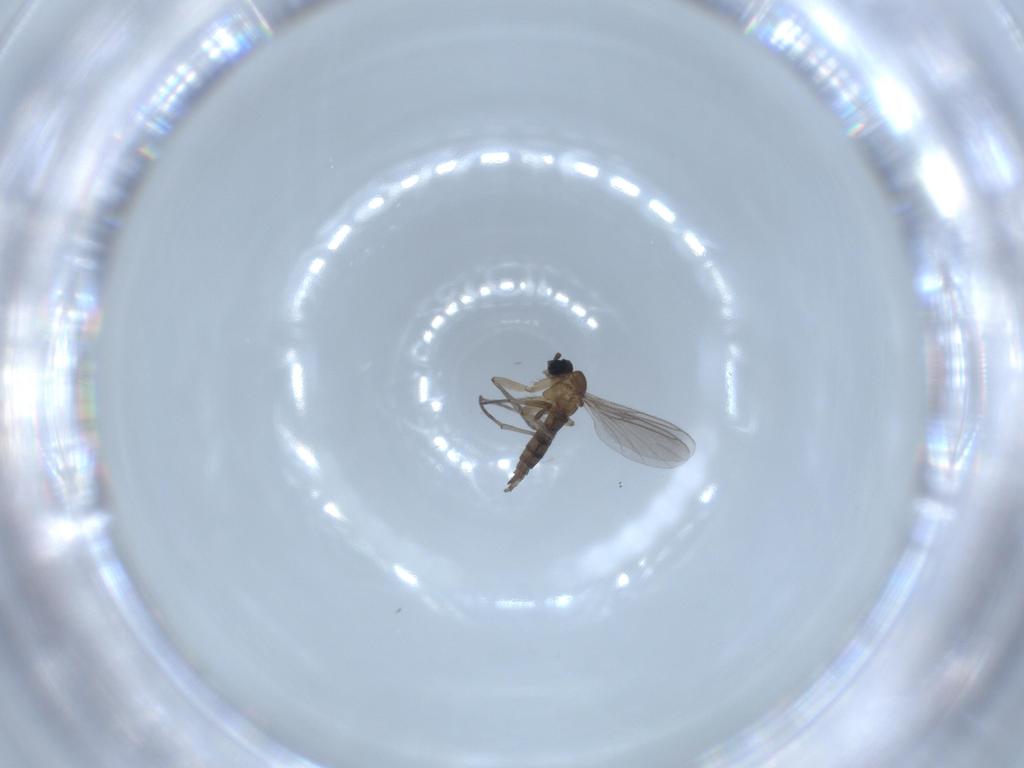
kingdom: Animalia
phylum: Arthropoda
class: Insecta
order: Diptera
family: Sciaridae
